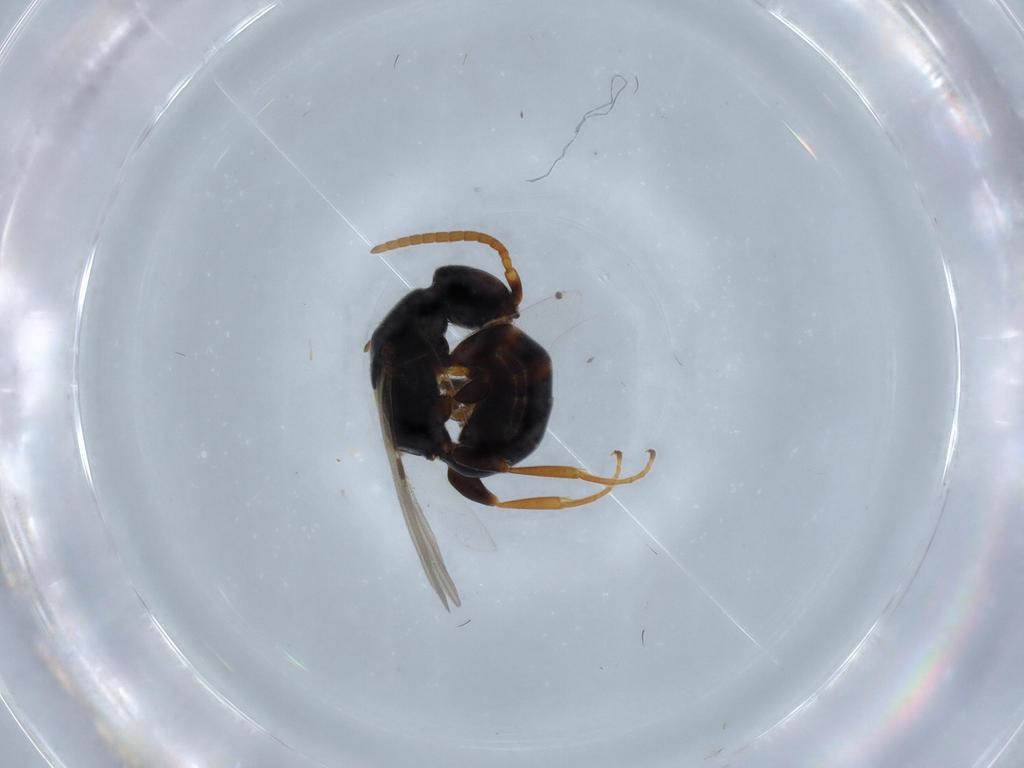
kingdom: Animalia
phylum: Arthropoda
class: Insecta
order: Hymenoptera
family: Bethylidae
